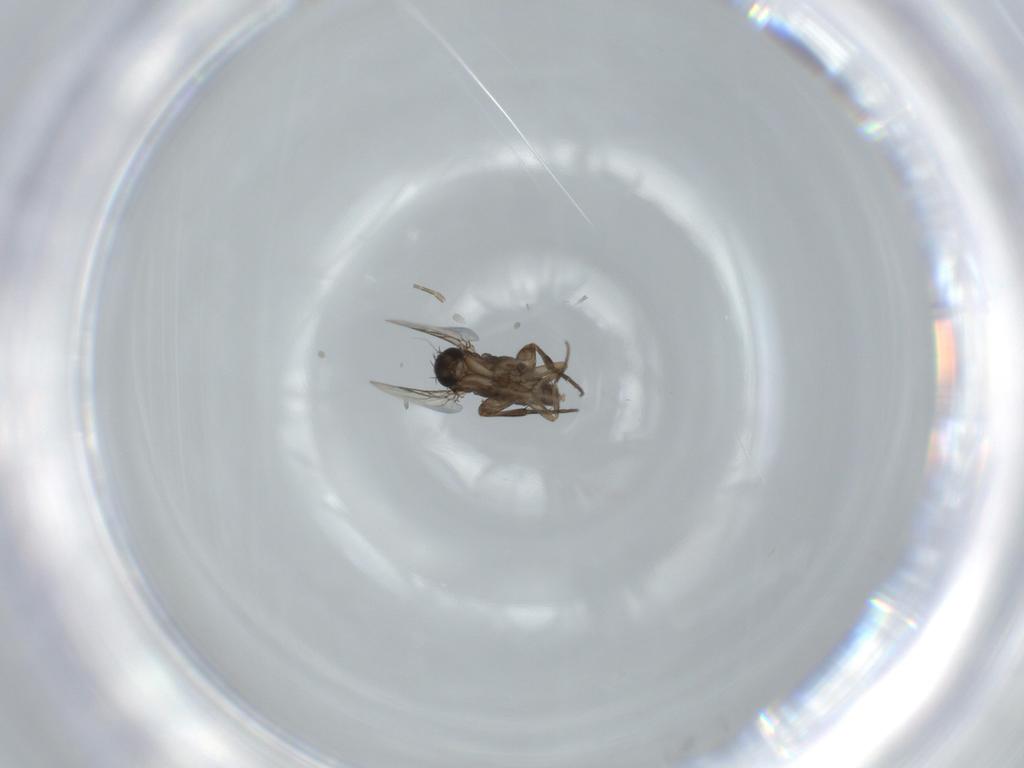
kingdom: Animalia
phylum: Arthropoda
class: Insecta
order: Diptera
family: Phoridae
